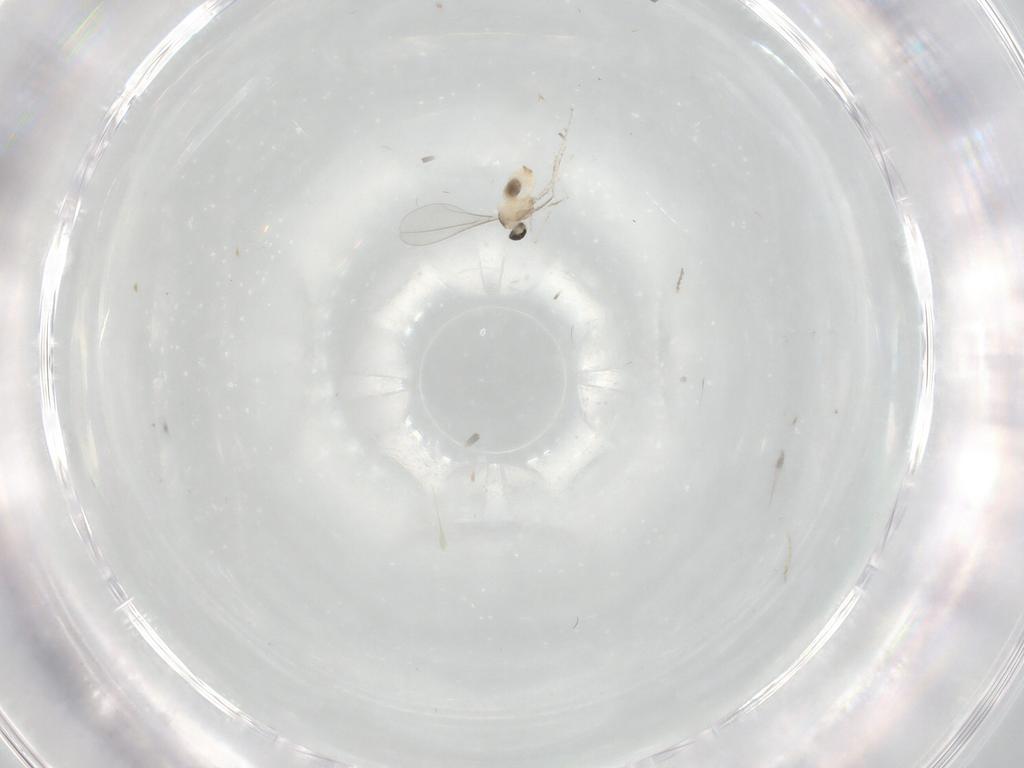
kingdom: Animalia
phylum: Arthropoda
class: Insecta
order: Diptera
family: Cecidomyiidae
